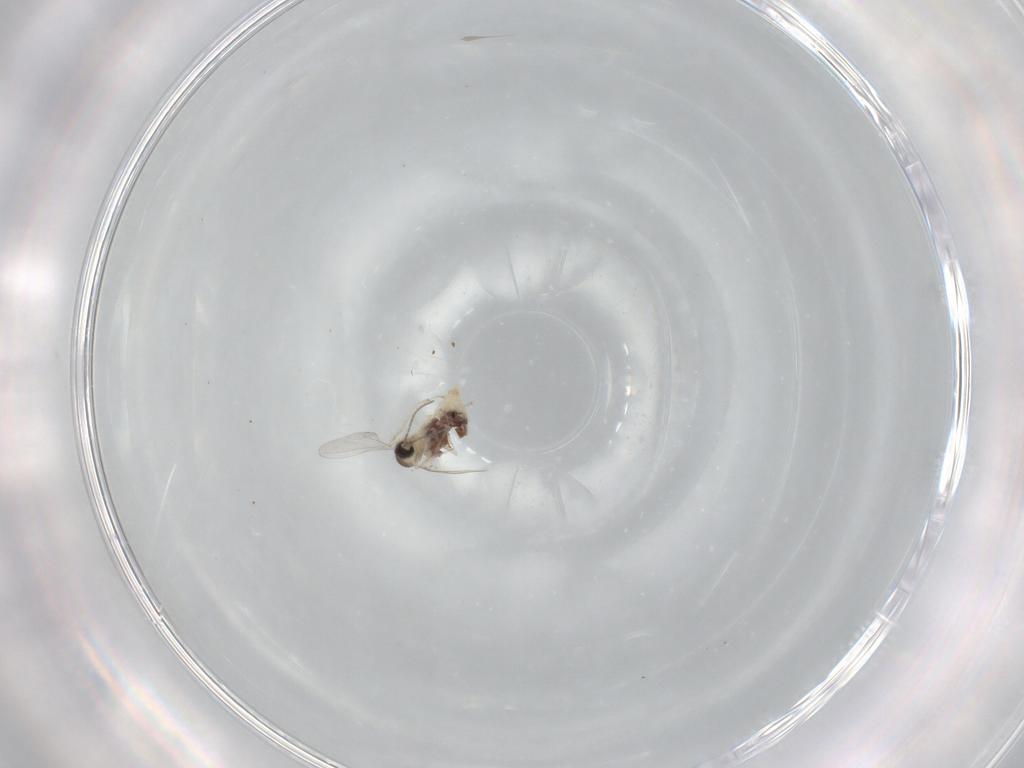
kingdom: Animalia
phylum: Arthropoda
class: Insecta
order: Diptera
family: Cecidomyiidae
